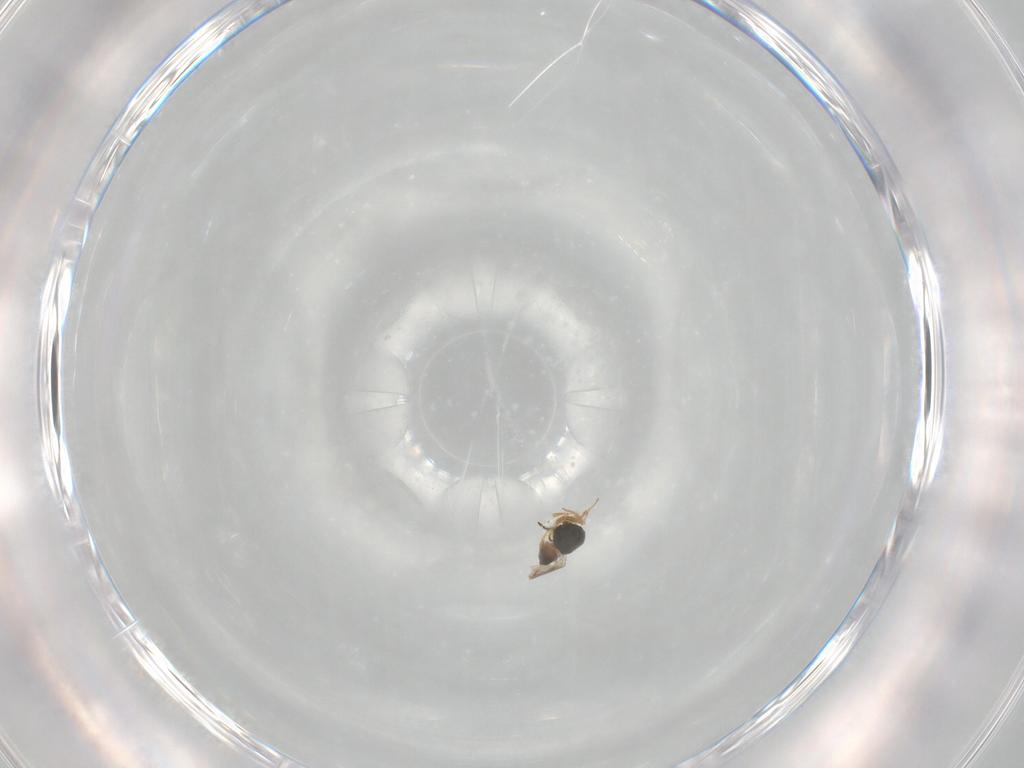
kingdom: Animalia
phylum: Arthropoda
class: Insecta
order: Hymenoptera
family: Ceraphronidae
